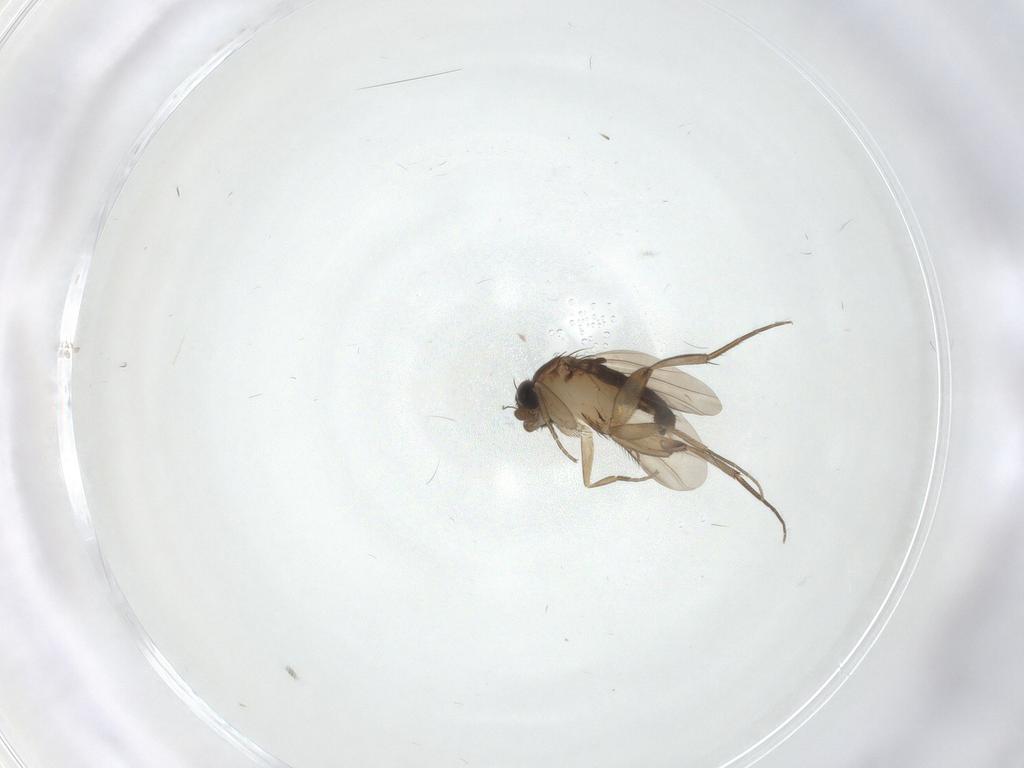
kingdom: Animalia
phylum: Arthropoda
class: Insecta
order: Diptera
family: Phoridae
